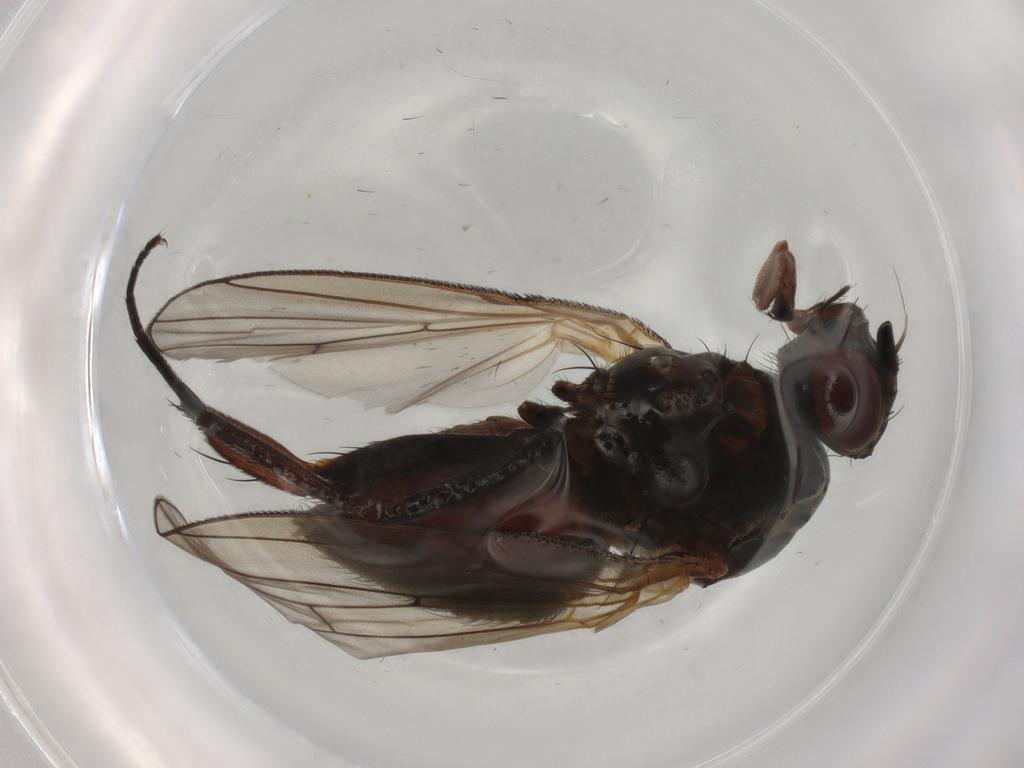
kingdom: Animalia
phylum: Arthropoda
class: Insecta
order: Diptera
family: Anthomyiidae
